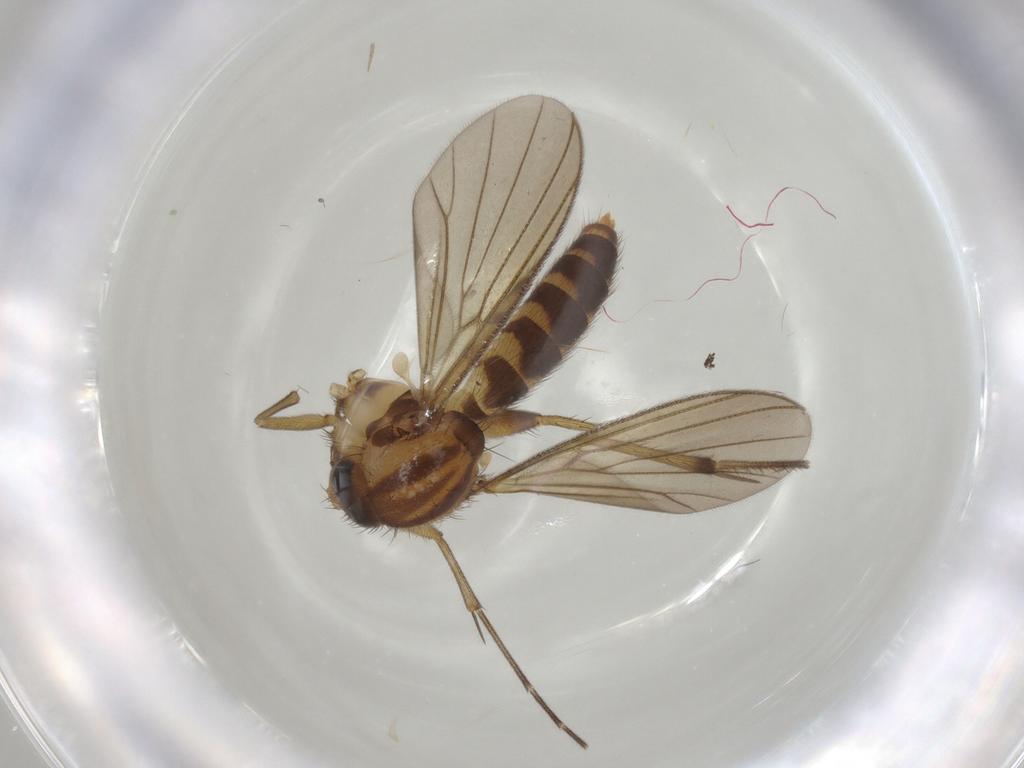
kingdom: Animalia
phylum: Arthropoda
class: Insecta
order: Diptera
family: Mycetophilidae
